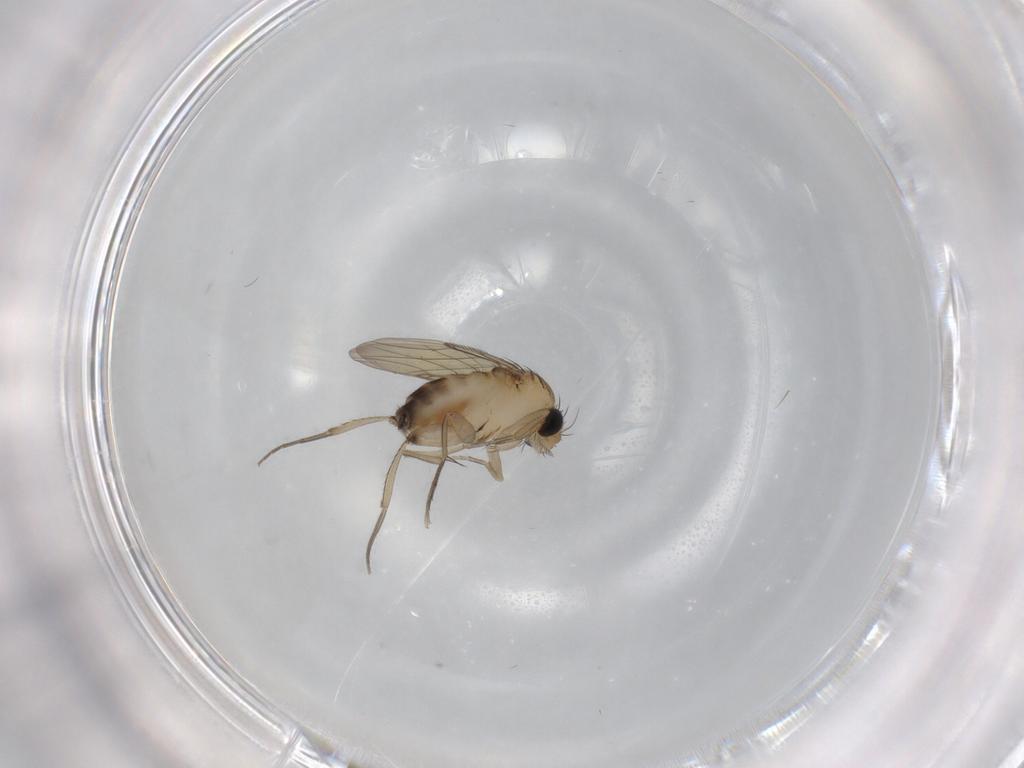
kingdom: Animalia
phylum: Arthropoda
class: Insecta
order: Diptera
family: Phoridae
